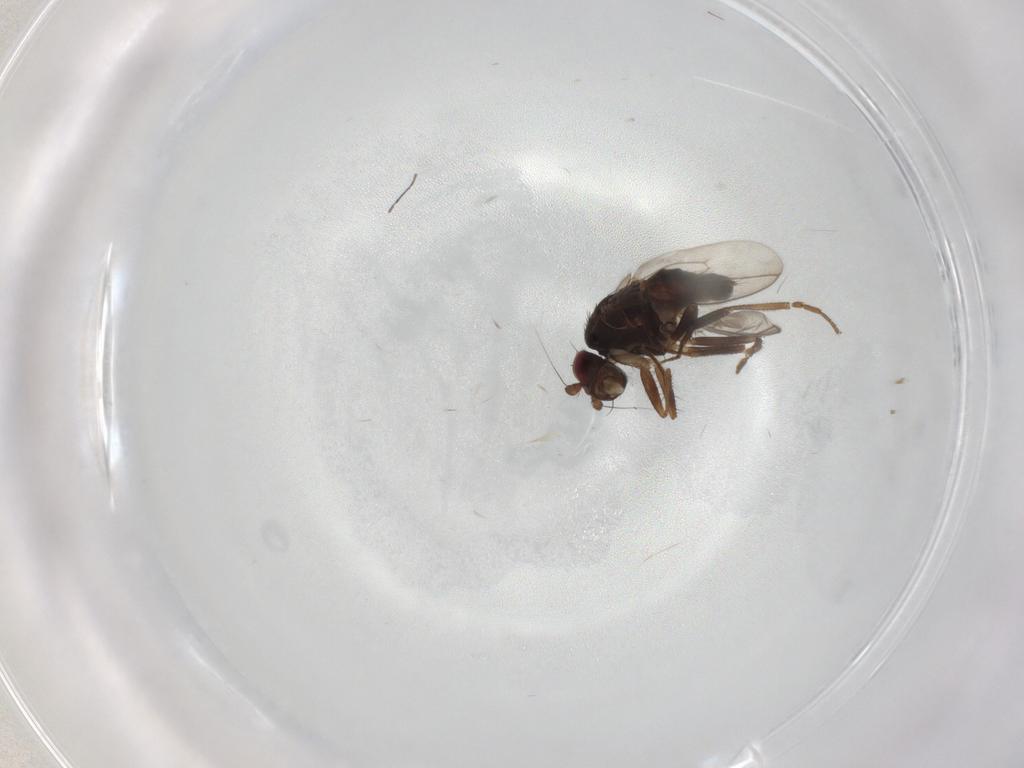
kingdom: Animalia
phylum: Arthropoda
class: Insecta
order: Diptera
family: Sphaeroceridae
